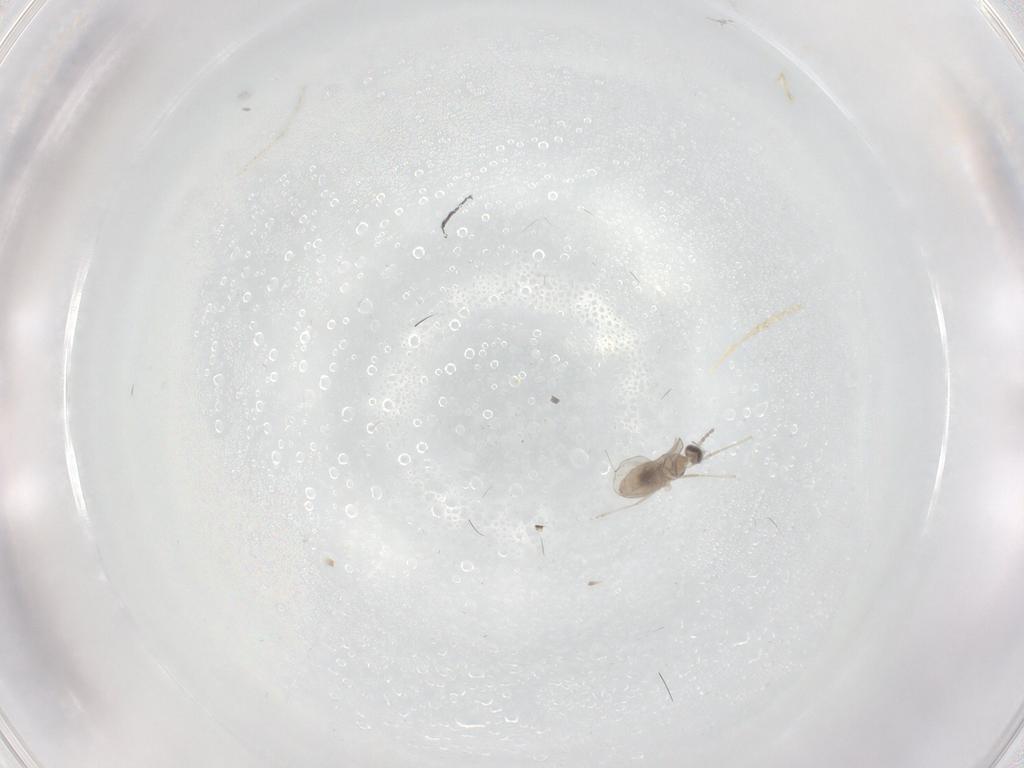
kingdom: Animalia
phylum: Arthropoda
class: Insecta
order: Diptera
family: Cecidomyiidae
